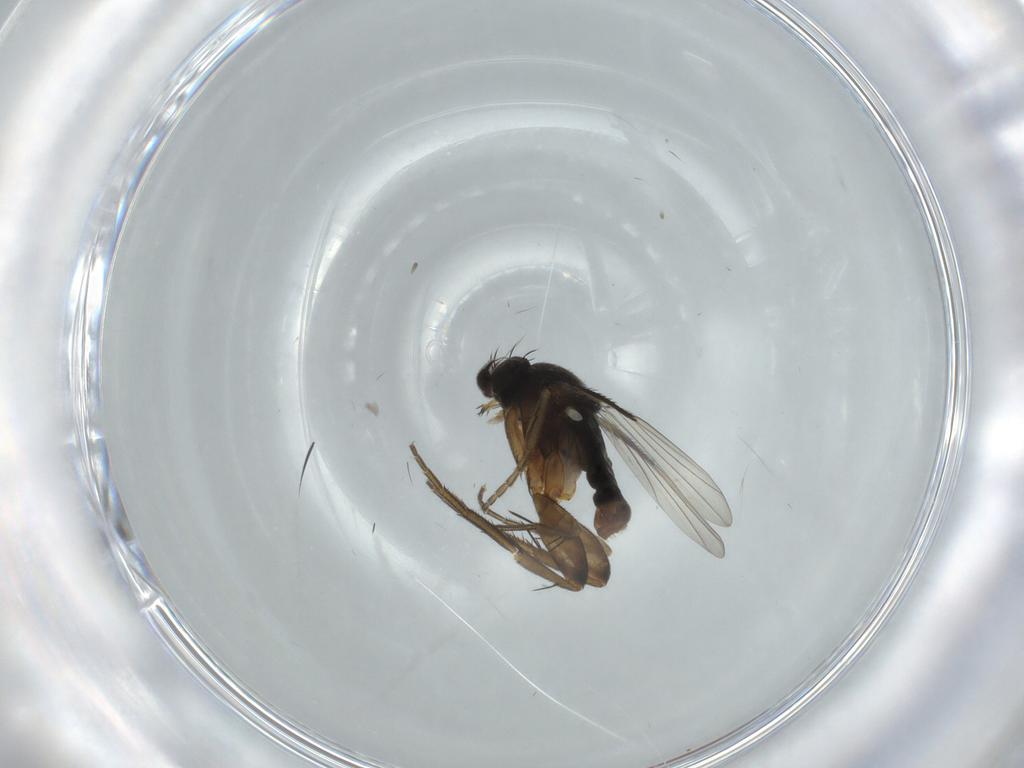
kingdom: Animalia
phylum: Arthropoda
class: Insecta
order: Diptera
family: Phoridae
